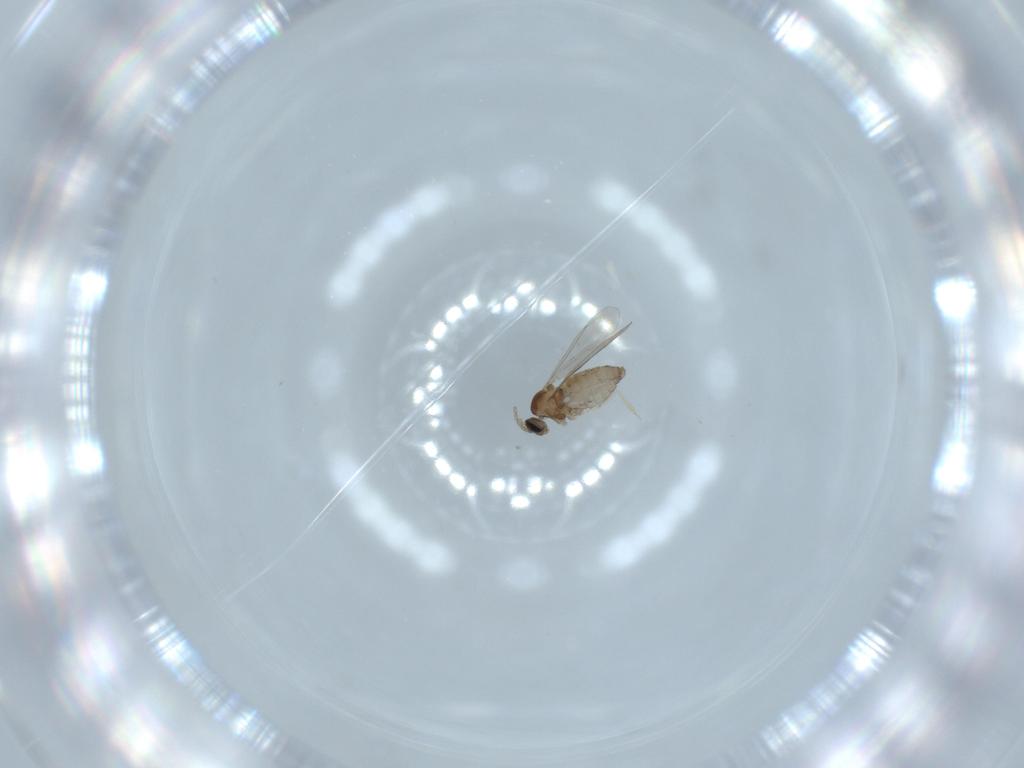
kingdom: Animalia
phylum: Arthropoda
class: Insecta
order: Diptera
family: Cecidomyiidae
